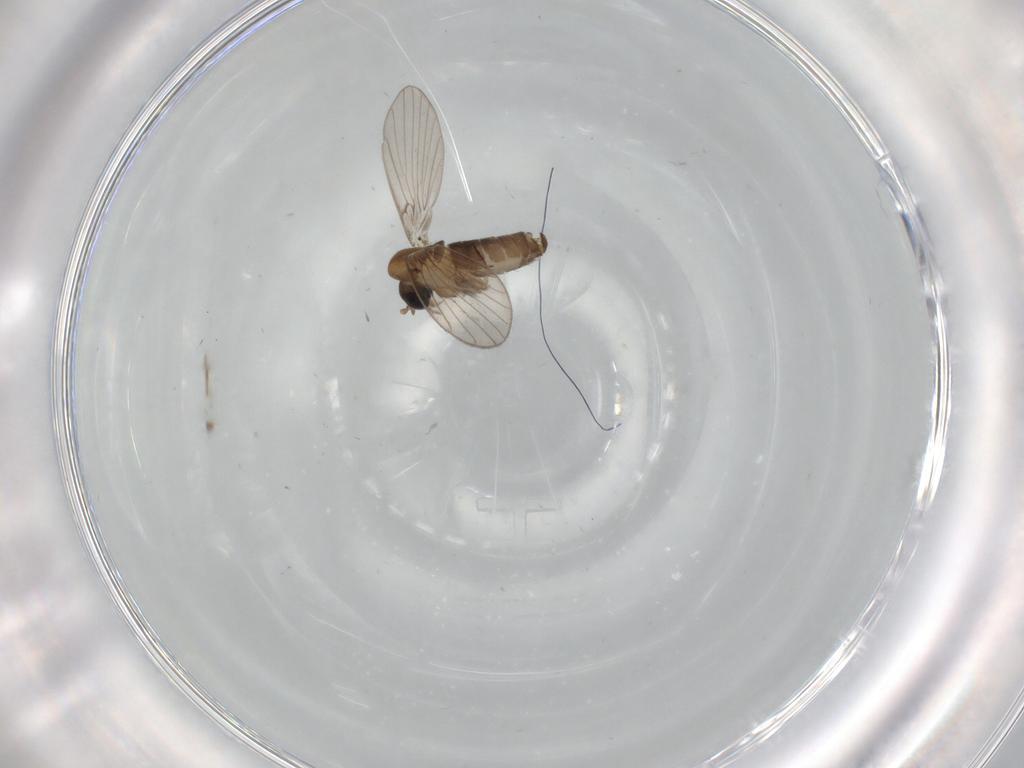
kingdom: Animalia
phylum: Arthropoda
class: Insecta
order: Diptera
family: Psychodidae
